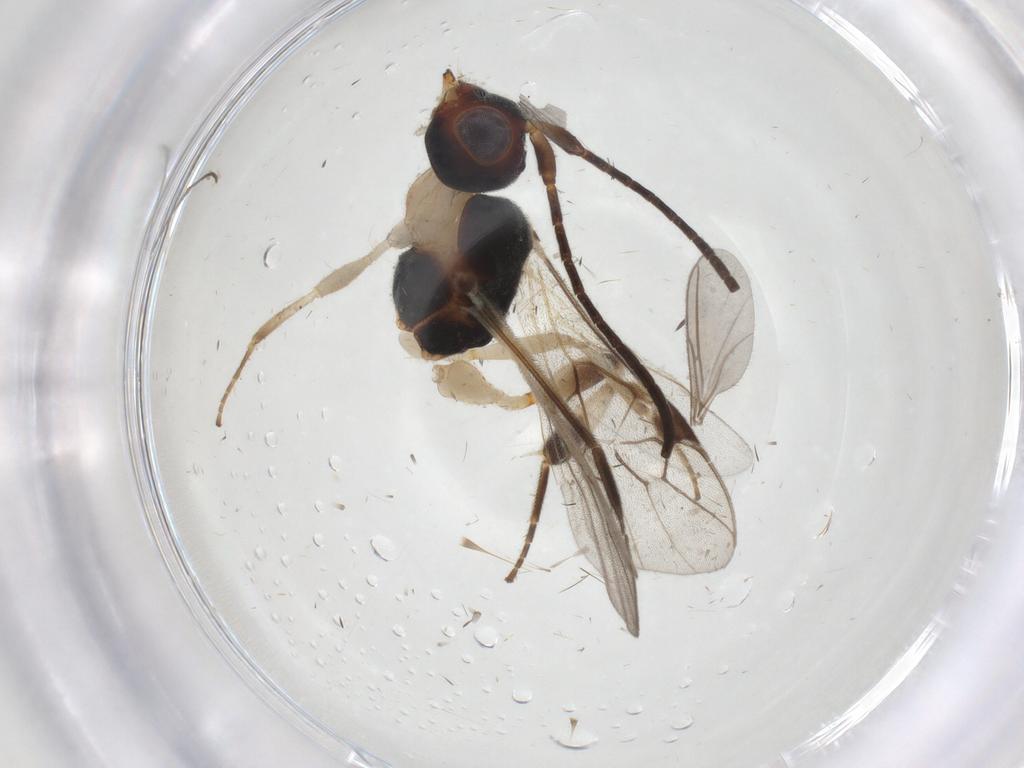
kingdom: Animalia
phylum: Arthropoda
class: Insecta
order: Hymenoptera
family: Braconidae
